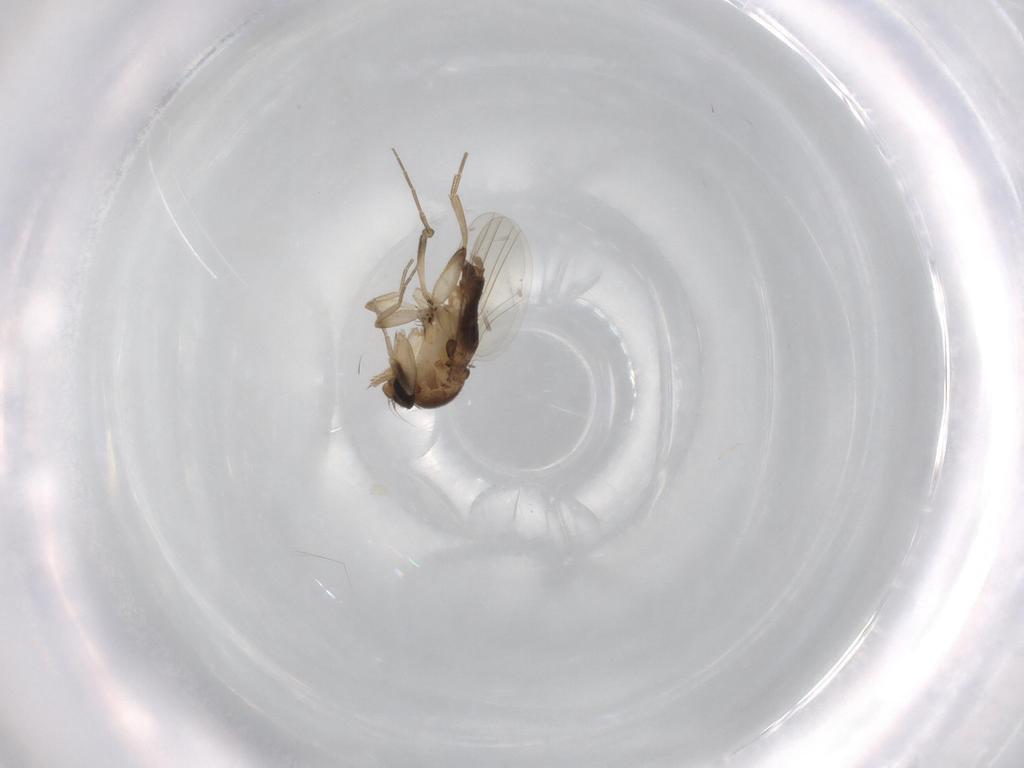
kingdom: Animalia
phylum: Arthropoda
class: Insecta
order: Diptera
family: Phoridae
